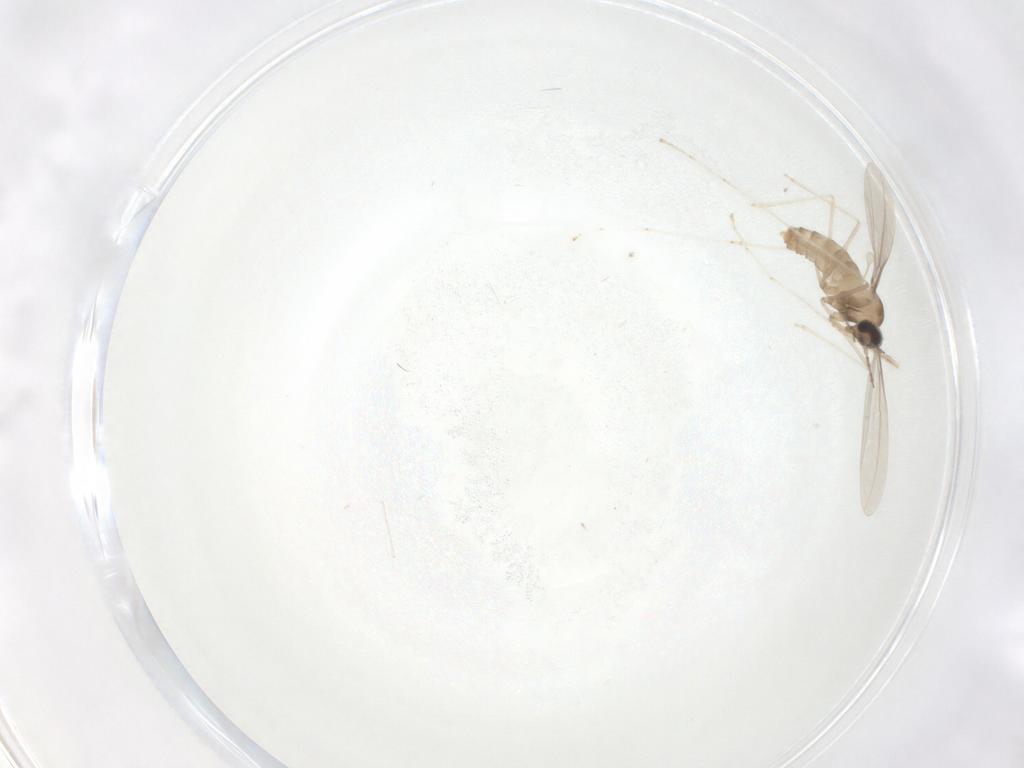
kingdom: Animalia
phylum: Arthropoda
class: Insecta
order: Diptera
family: Cecidomyiidae
